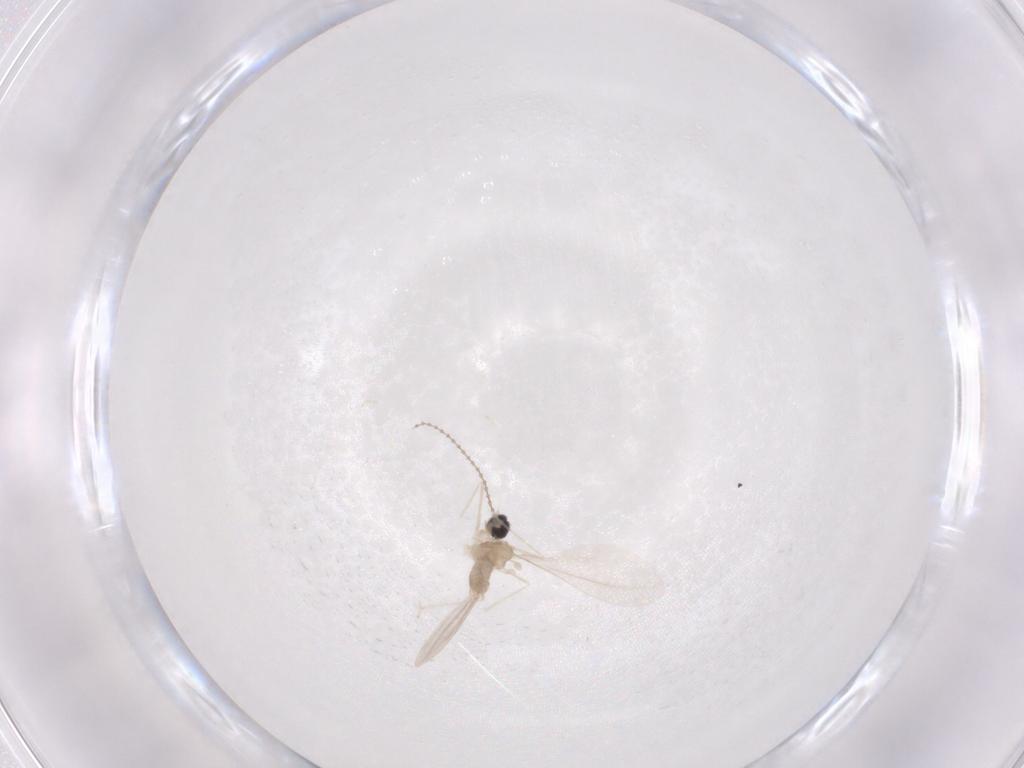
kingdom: Animalia
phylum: Arthropoda
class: Insecta
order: Diptera
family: Cecidomyiidae
